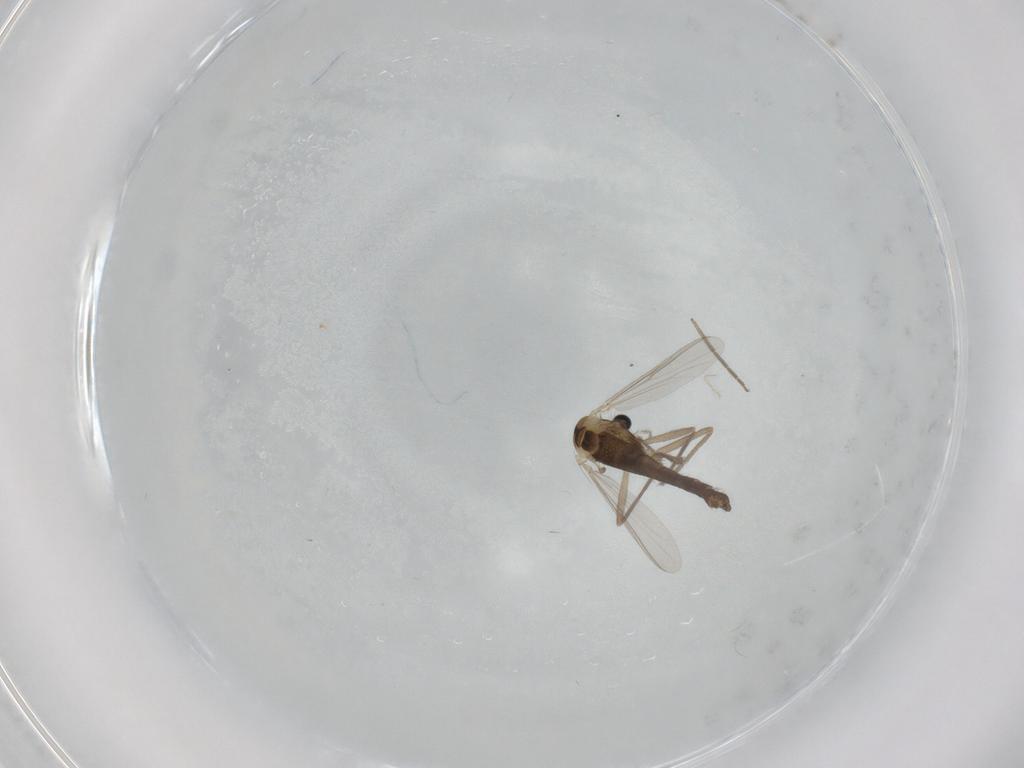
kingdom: Animalia
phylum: Arthropoda
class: Insecta
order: Diptera
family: Chironomidae
